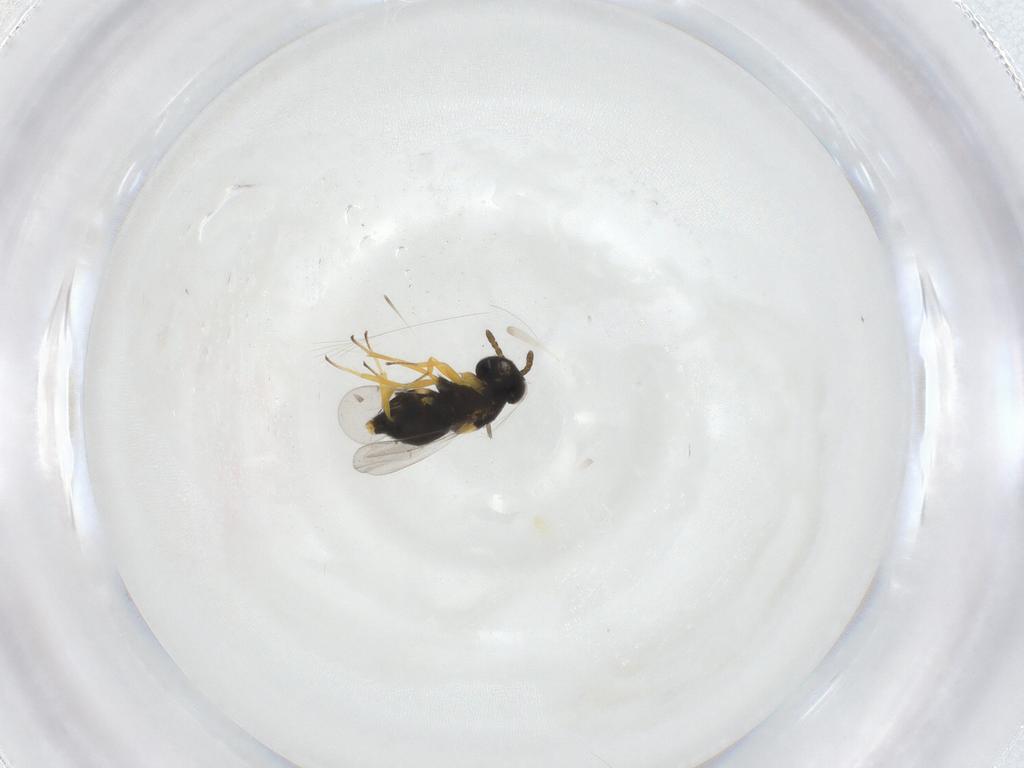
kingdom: Animalia
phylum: Arthropoda
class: Insecta
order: Hymenoptera
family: Aphelinidae
